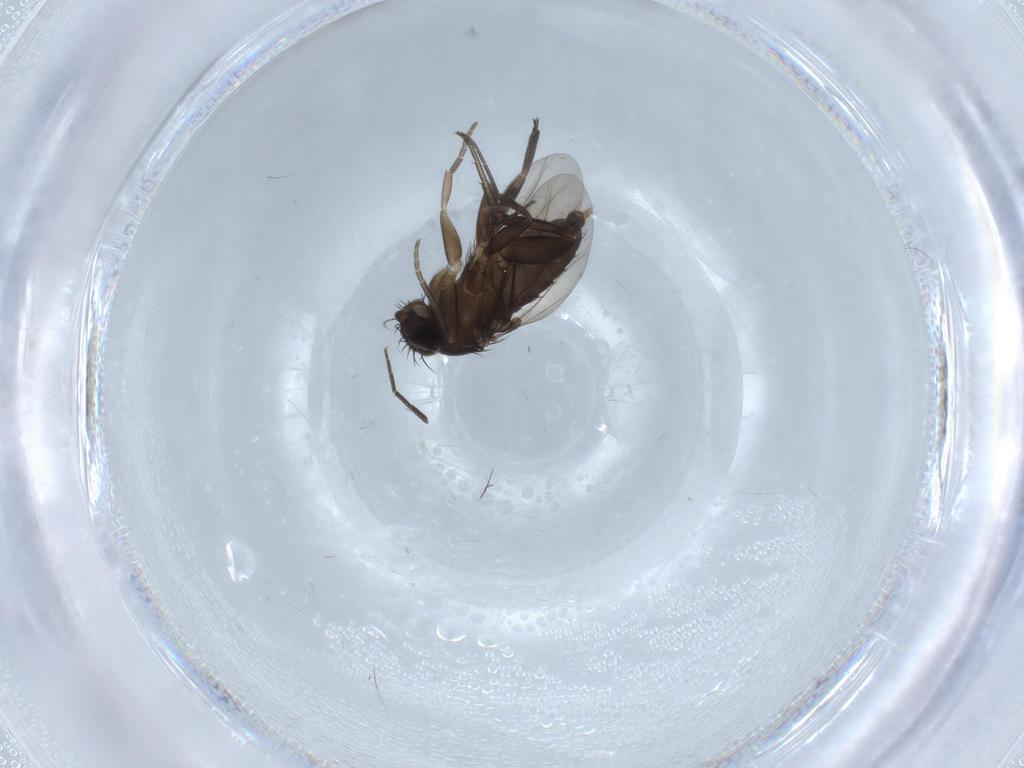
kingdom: Animalia
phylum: Arthropoda
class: Insecta
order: Diptera
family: Phoridae
